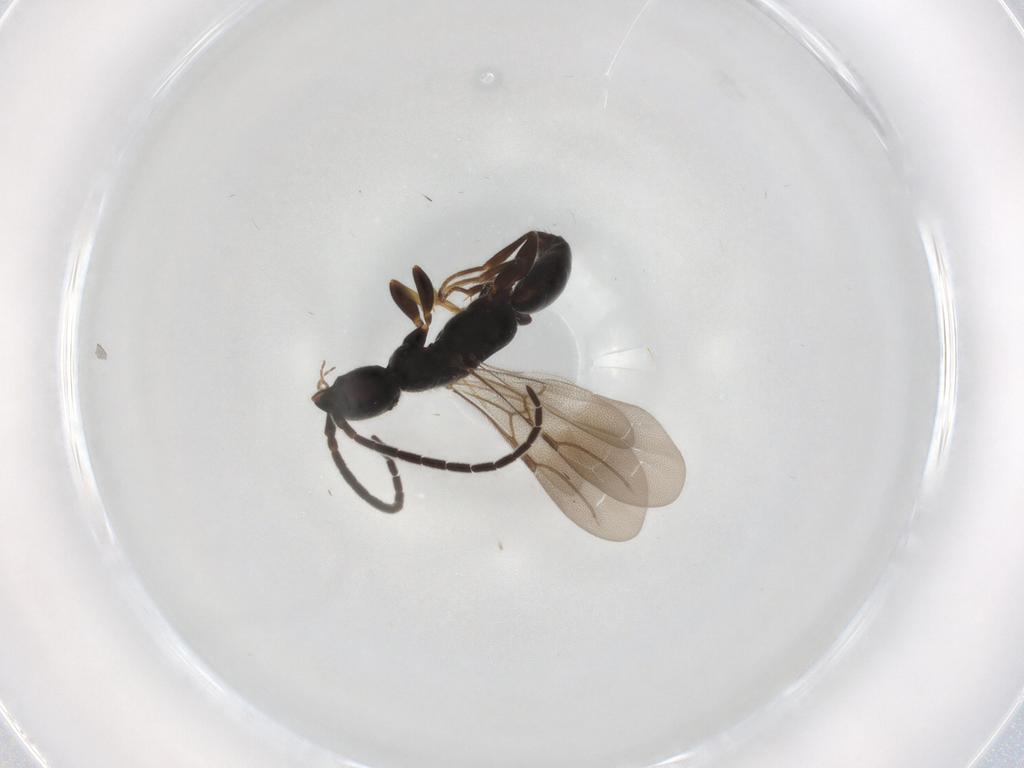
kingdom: Animalia
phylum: Arthropoda
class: Insecta
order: Hymenoptera
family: Bethylidae
